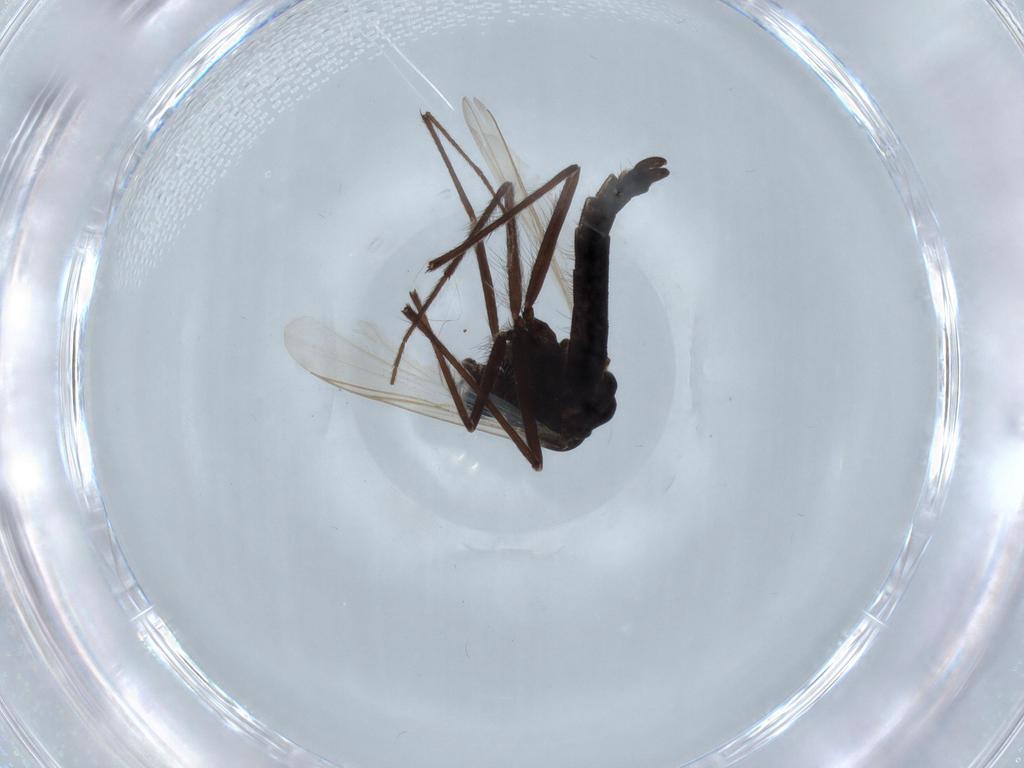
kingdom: Animalia
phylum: Arthropoda
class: Insecta
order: Diptera
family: Chironomidae
